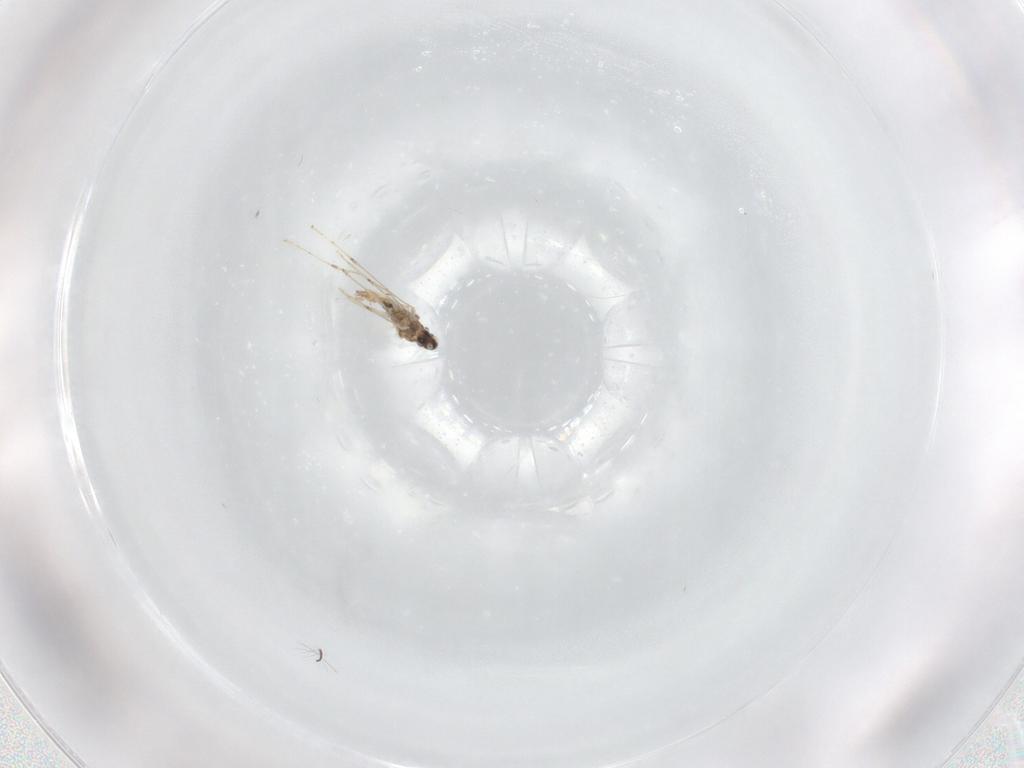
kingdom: Animalia
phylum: Arthropoda
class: Insecta
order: Diptera
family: Cecidomyiidae
